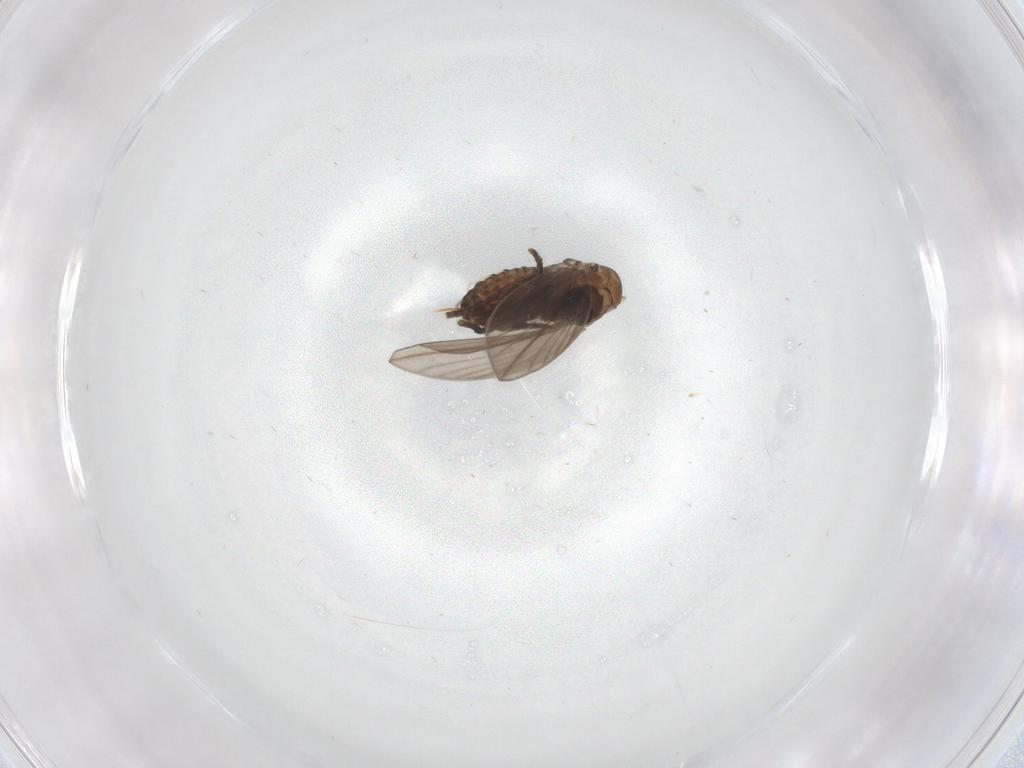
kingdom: Animalia
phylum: Arthropoda
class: Insecta
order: Diptera
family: Psychodidae
